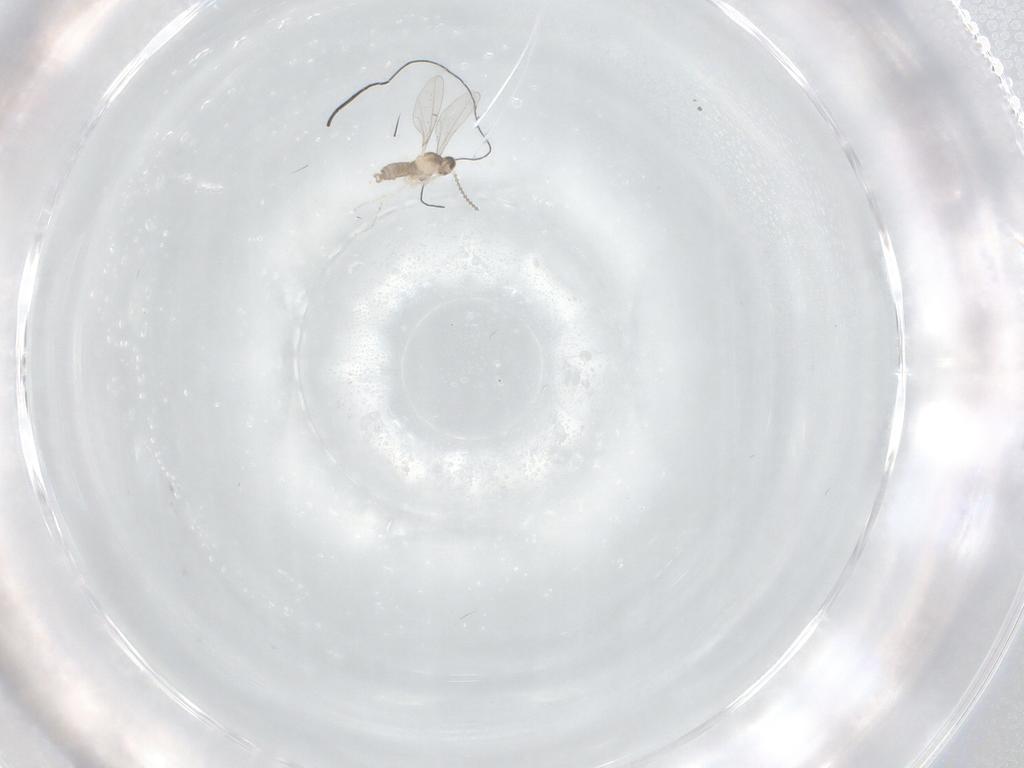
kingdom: Animalia
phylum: Arthropoda
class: Insecta
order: Diptera
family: Cecidomyiidae
